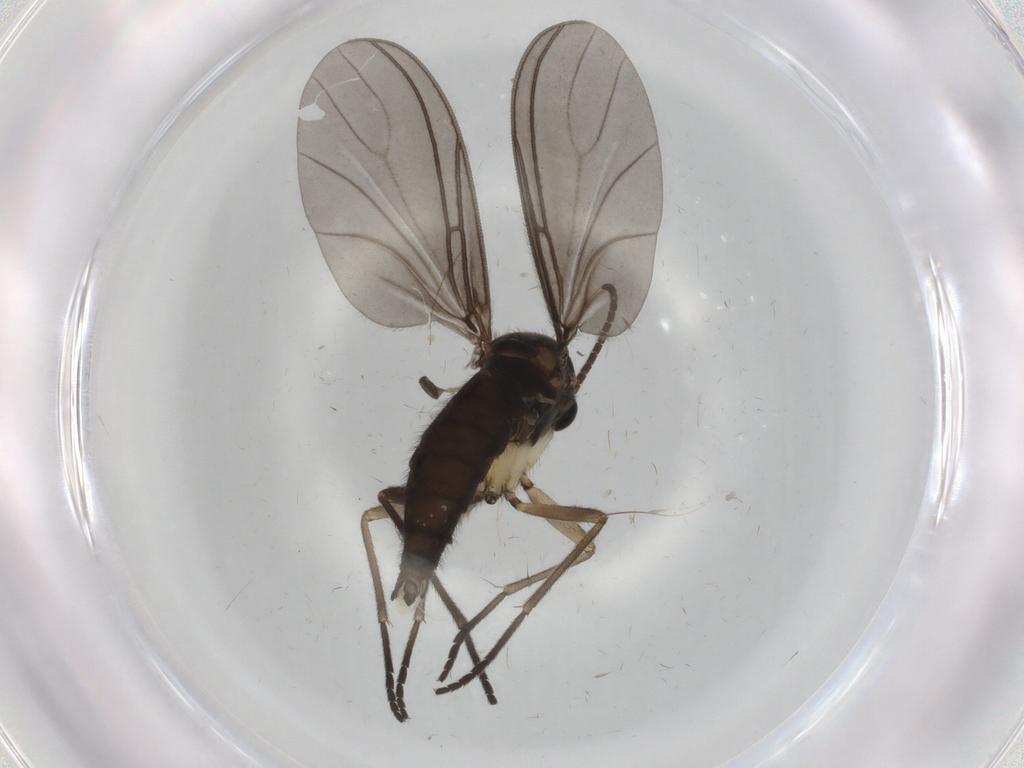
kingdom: Animalia
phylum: Arthropoda
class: Insecta
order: Diptera
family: Sciaridae
